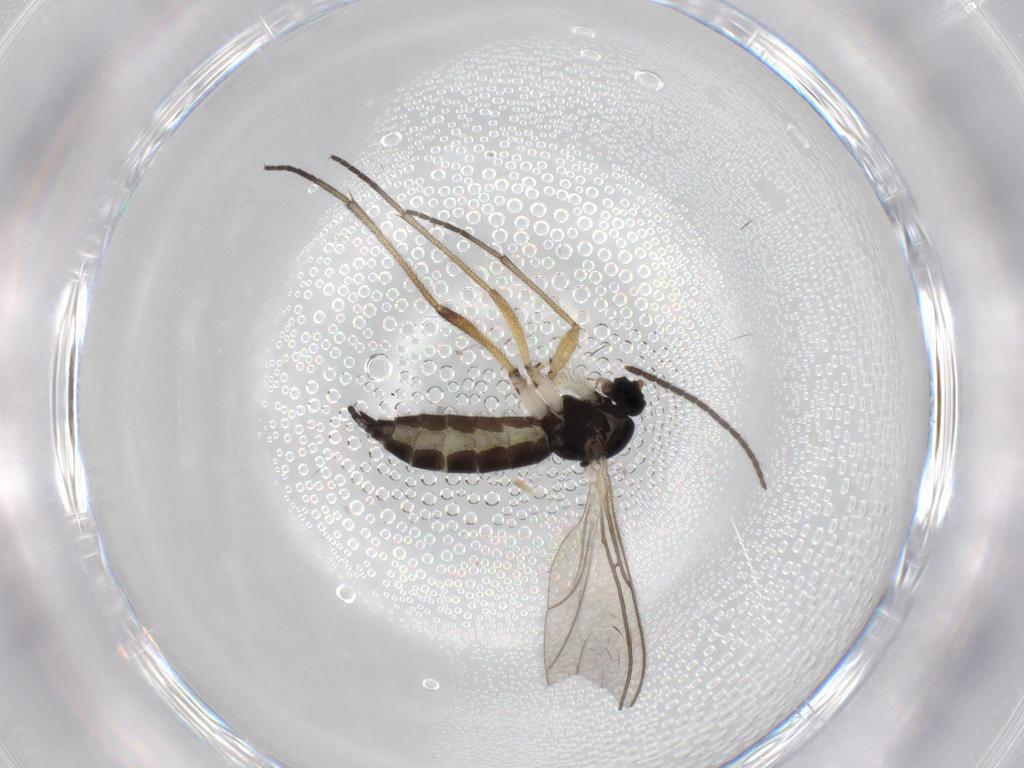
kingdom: Animalia
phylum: Arthropoda
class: Insecta
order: Diptera
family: Sciaridae
